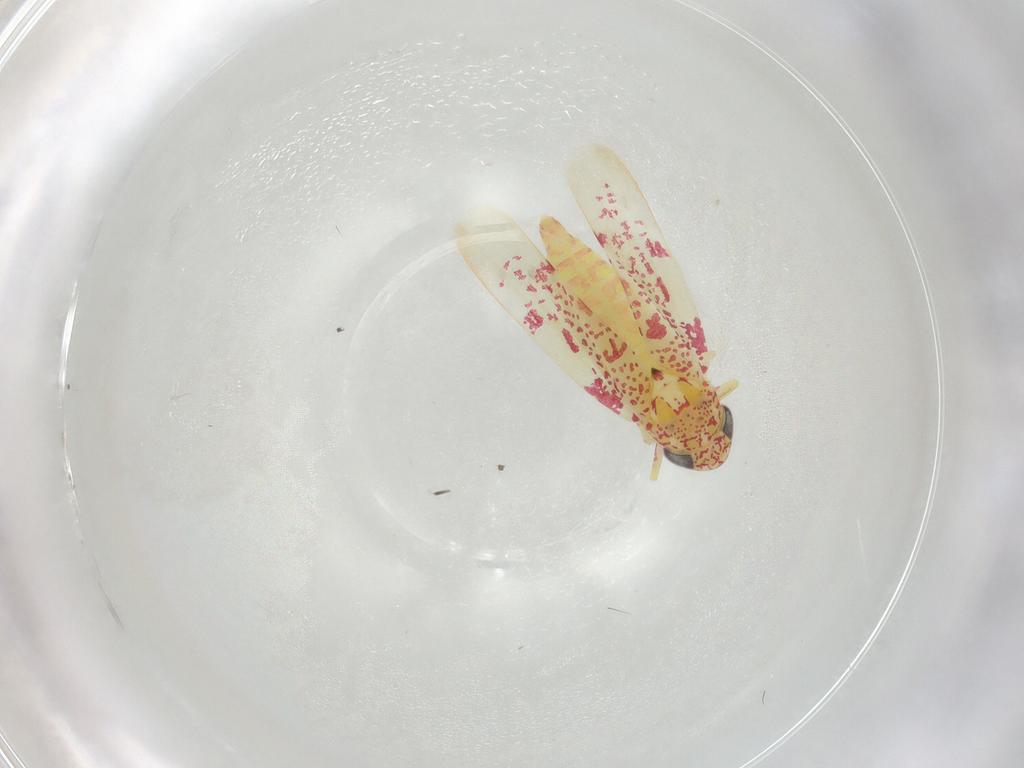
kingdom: Animalia
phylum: Arthropoda
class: Insecta
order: Hemiptera
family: Cicadellidae
